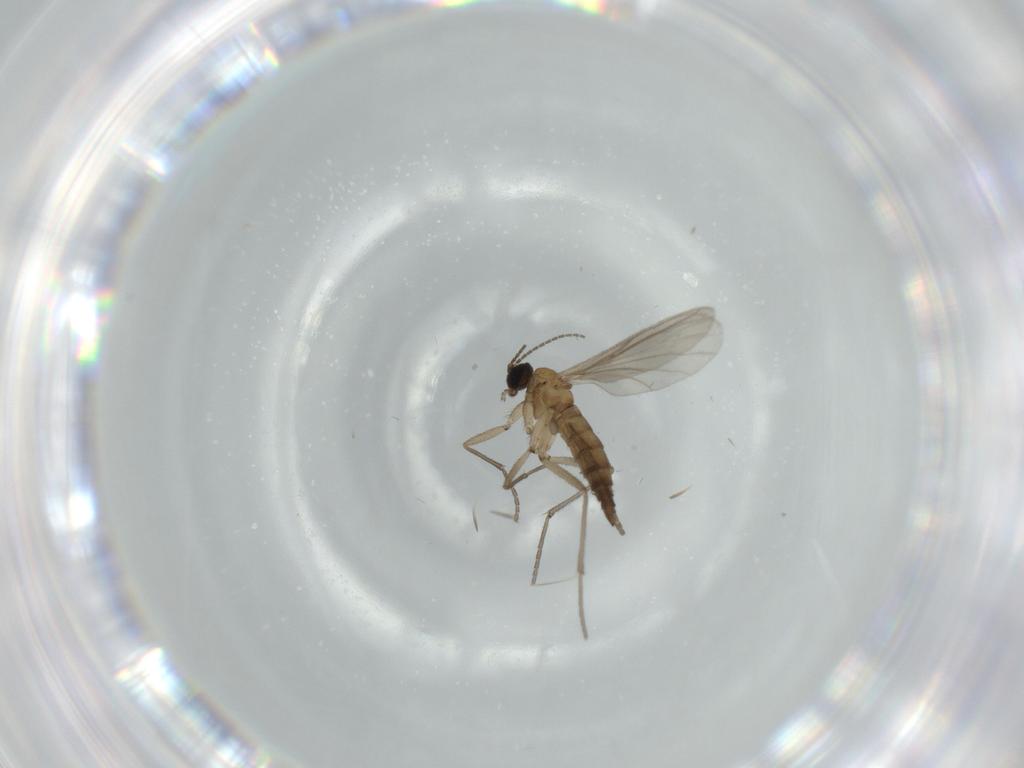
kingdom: Animalia
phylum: Arthropoda
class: Insecta
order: Diptera
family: Sciaridae
